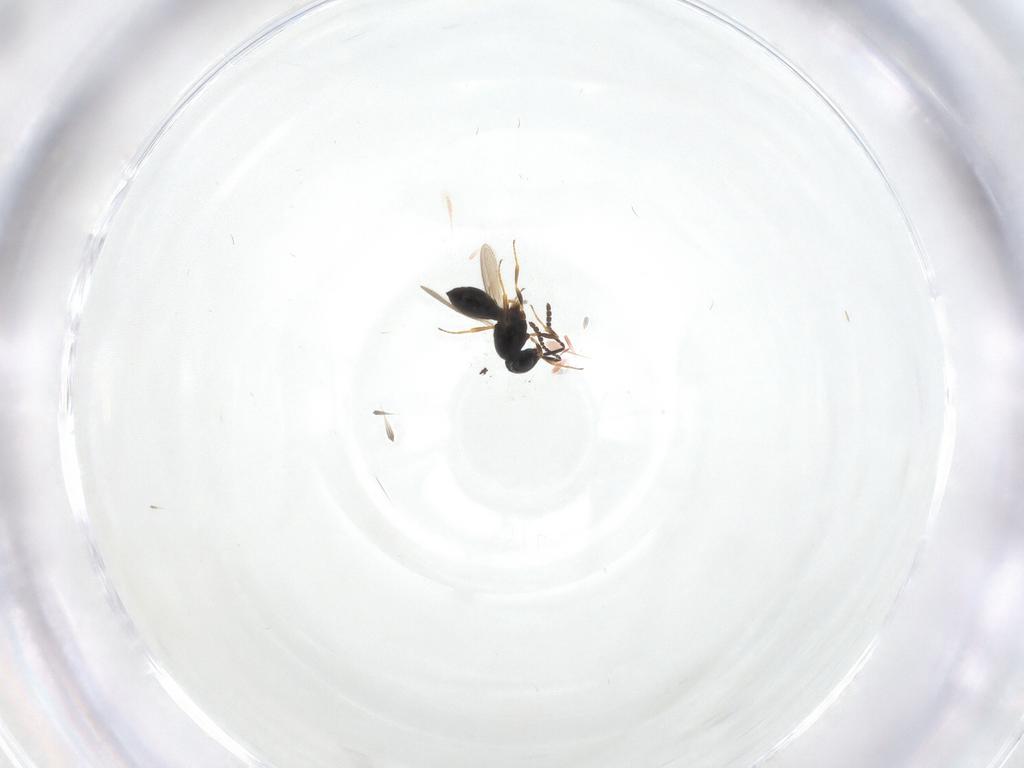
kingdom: Animalia
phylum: Arthropoda
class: Insecta
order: Hymenoptera
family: Scelionidae
